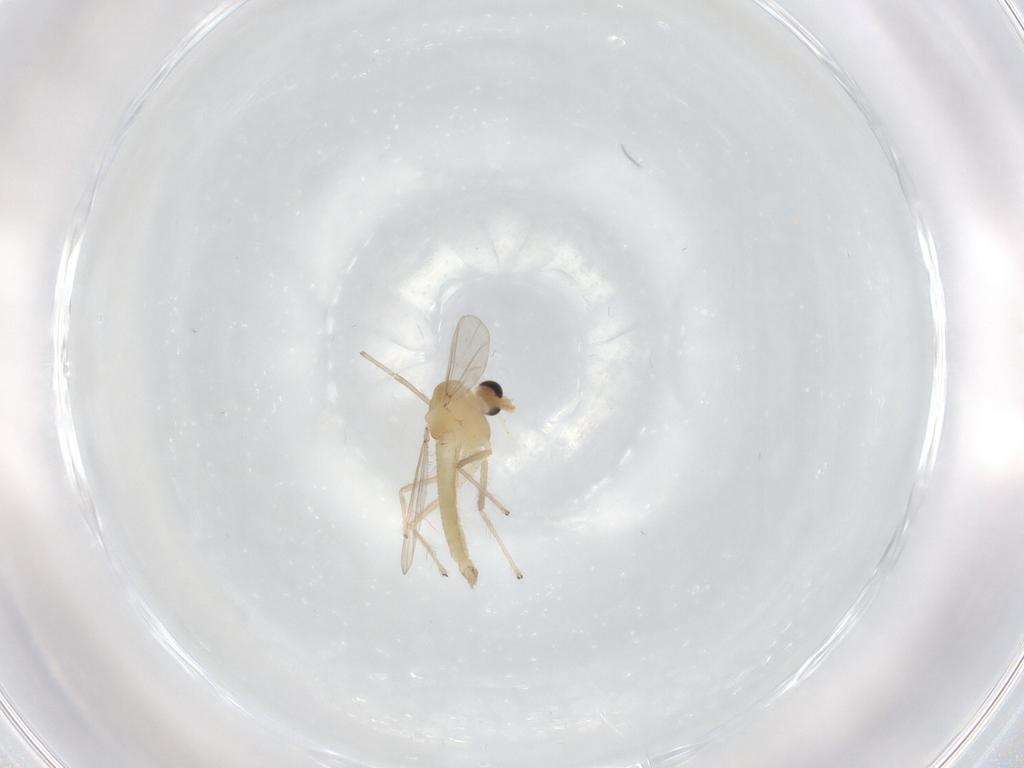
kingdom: Animalia
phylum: Arthropoda
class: Insecta
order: Diptera
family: Chironomidae
